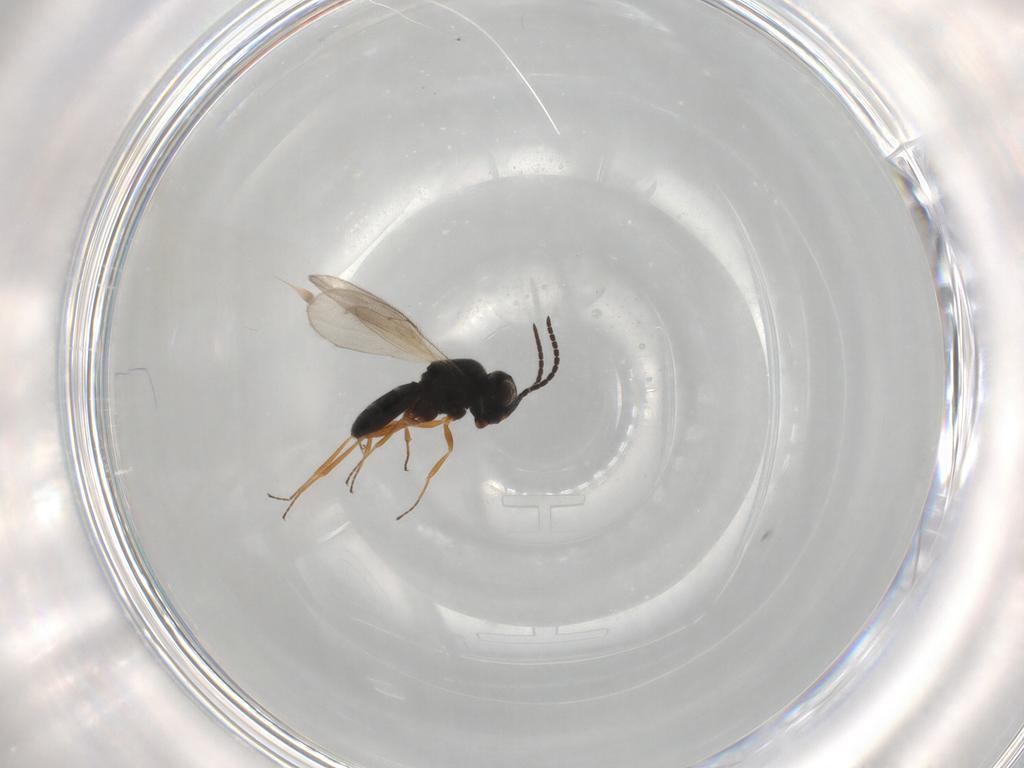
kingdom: Animalia
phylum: Arthropoda
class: Insecta
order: Hymenoptera
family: Scelionidae
